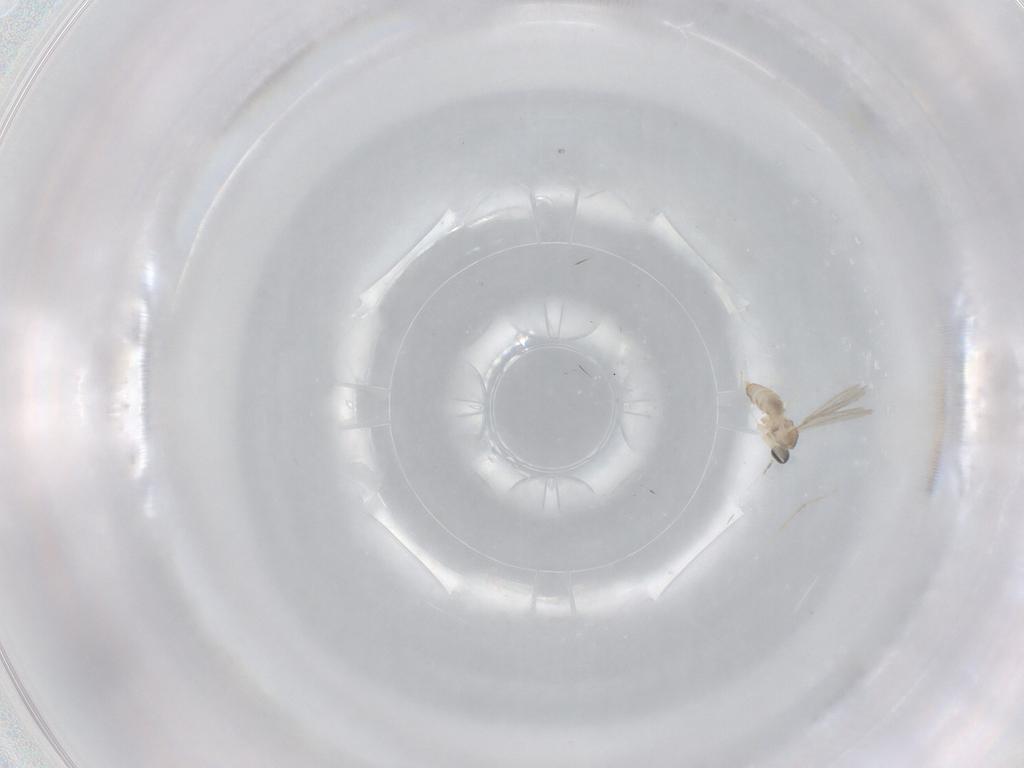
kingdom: Animalia
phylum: Arthropoda
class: Insecta
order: Diptera
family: Cecidomyiidae
